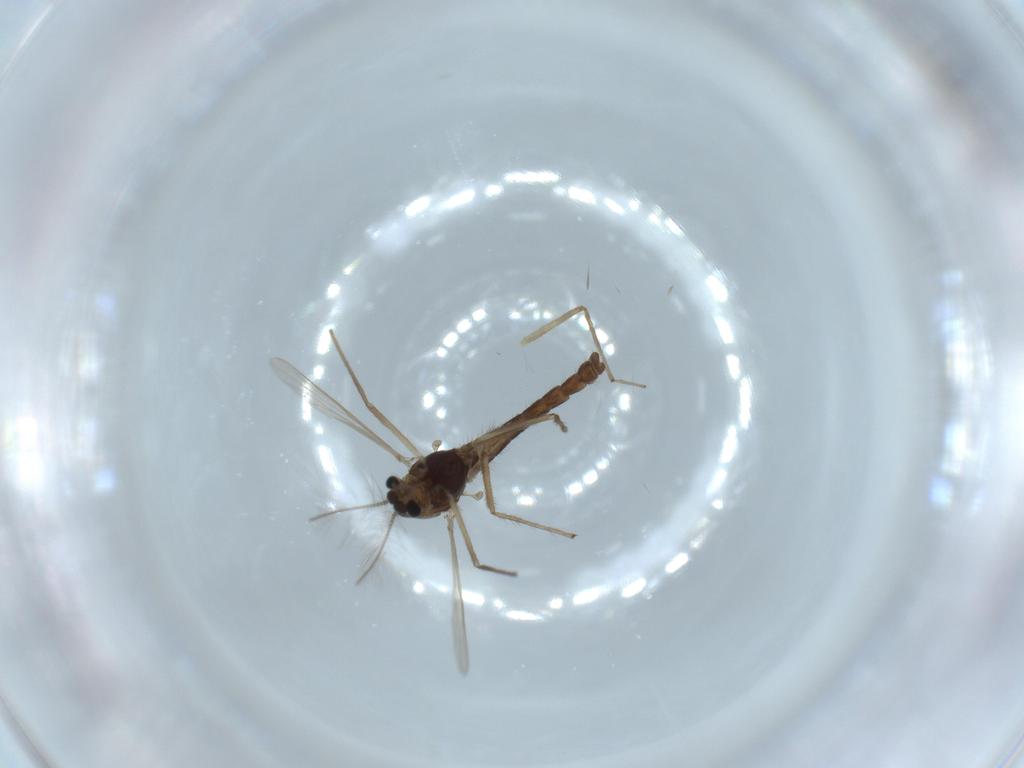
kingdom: Animalia
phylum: Arthropoda
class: Insecta
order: Diptera
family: Chironomidae
